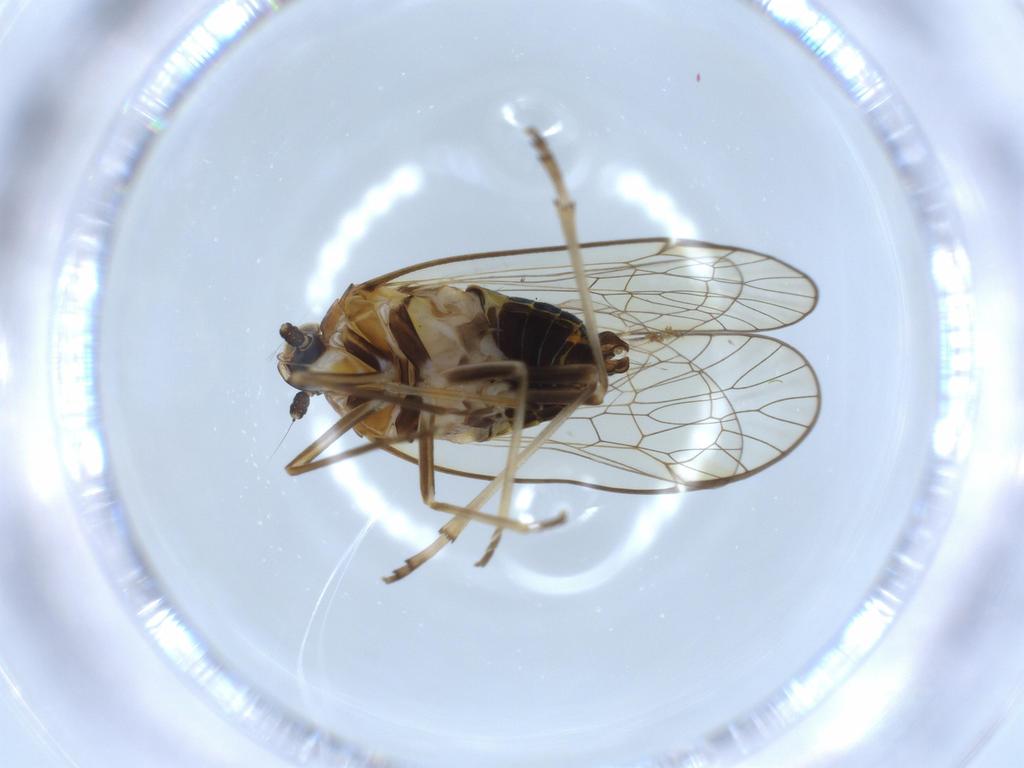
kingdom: Animalia
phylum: Arthropoda
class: Insecta
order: Hemiptera
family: Kinnaridae
